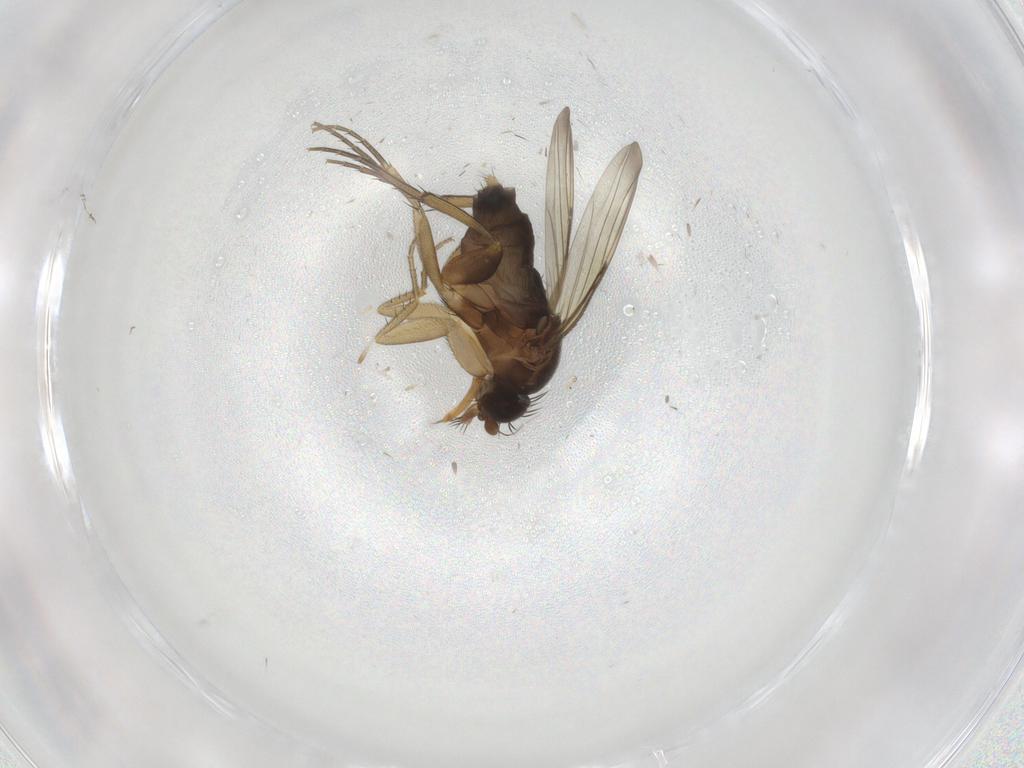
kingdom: Animalia
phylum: Arthropoda
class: Insecta
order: Diptera
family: Phoridae
